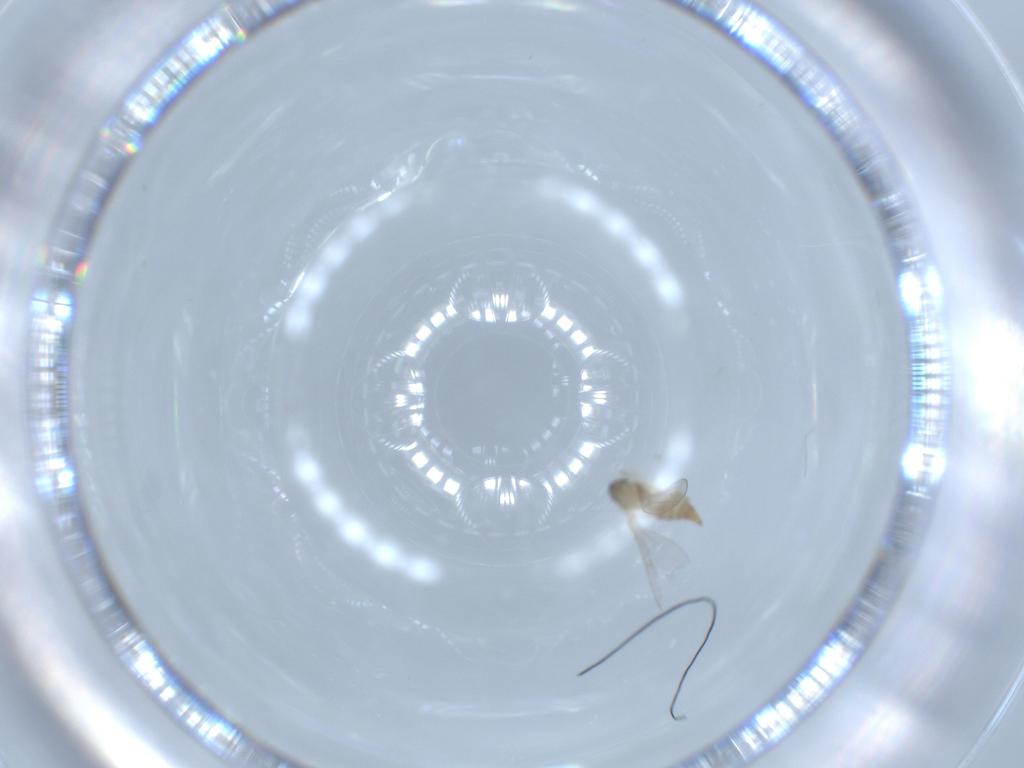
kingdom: Animalia
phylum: Arthropoda
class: Insecta
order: Diptera
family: Cecidomyiidae
